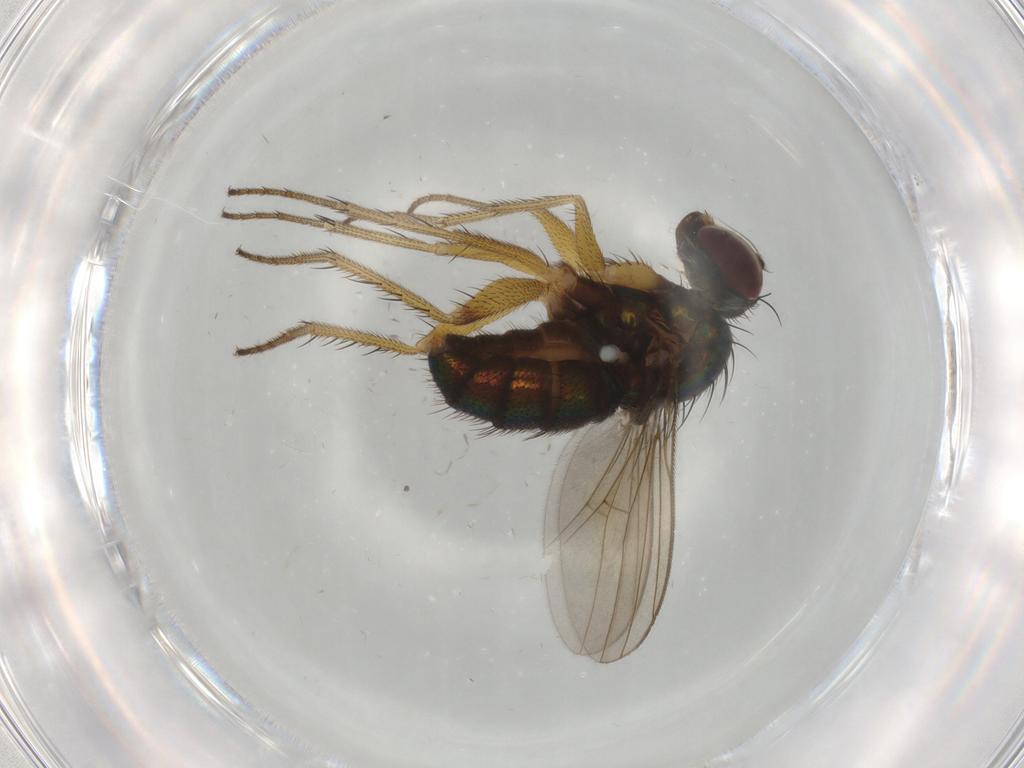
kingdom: Animalia
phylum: Arthropoda
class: Insecta
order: Diptera
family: Dolichopodidae
